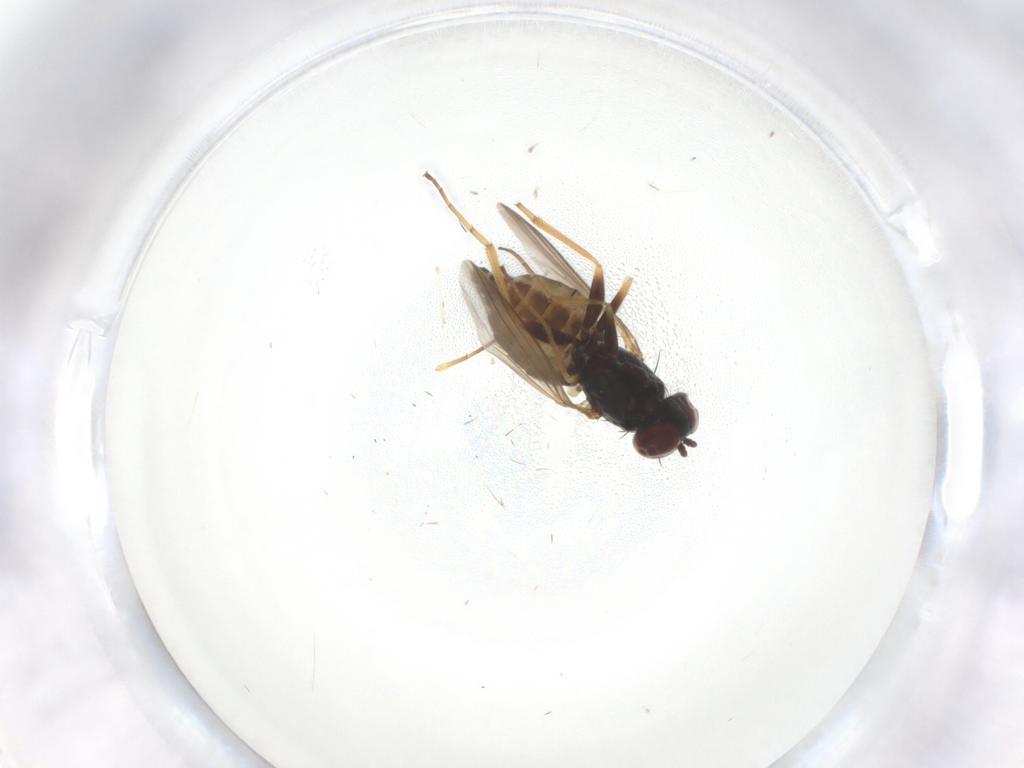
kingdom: Animalia
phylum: Arthropoda
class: Insecta
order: Diptera
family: Dolichopodidae
